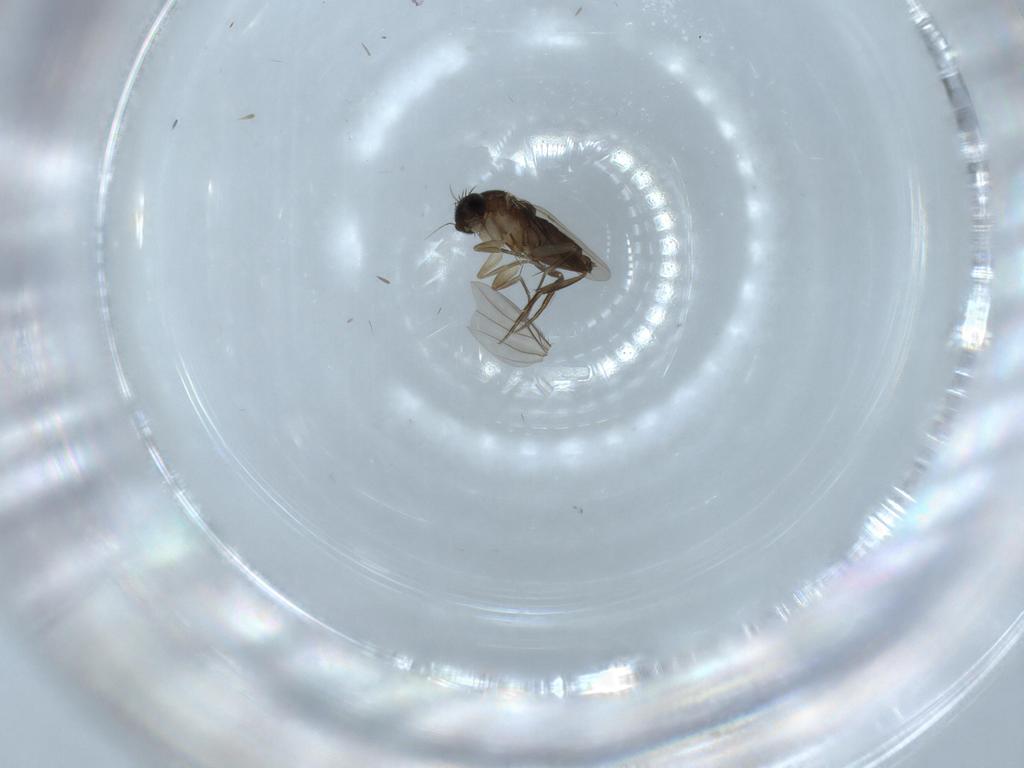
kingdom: Animalia
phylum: Arthropoda
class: Insecta
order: Diptera
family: Phoridae
